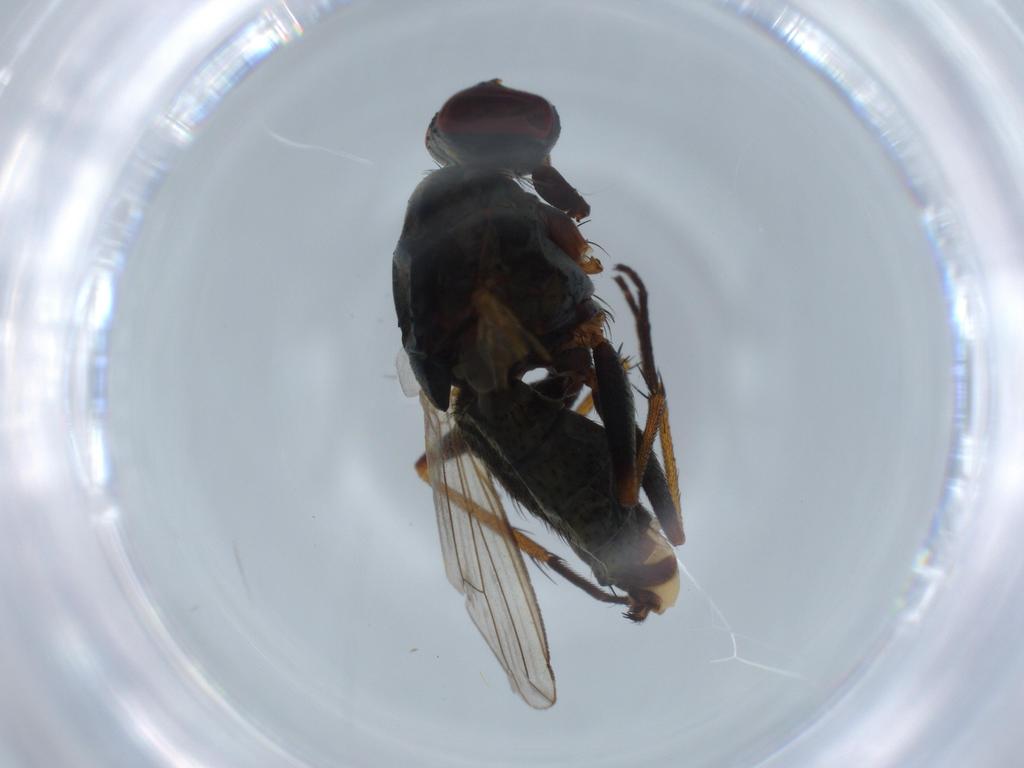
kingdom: Animalia
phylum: Arthropoda
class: Insecta
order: Diptera
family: Muscidae
